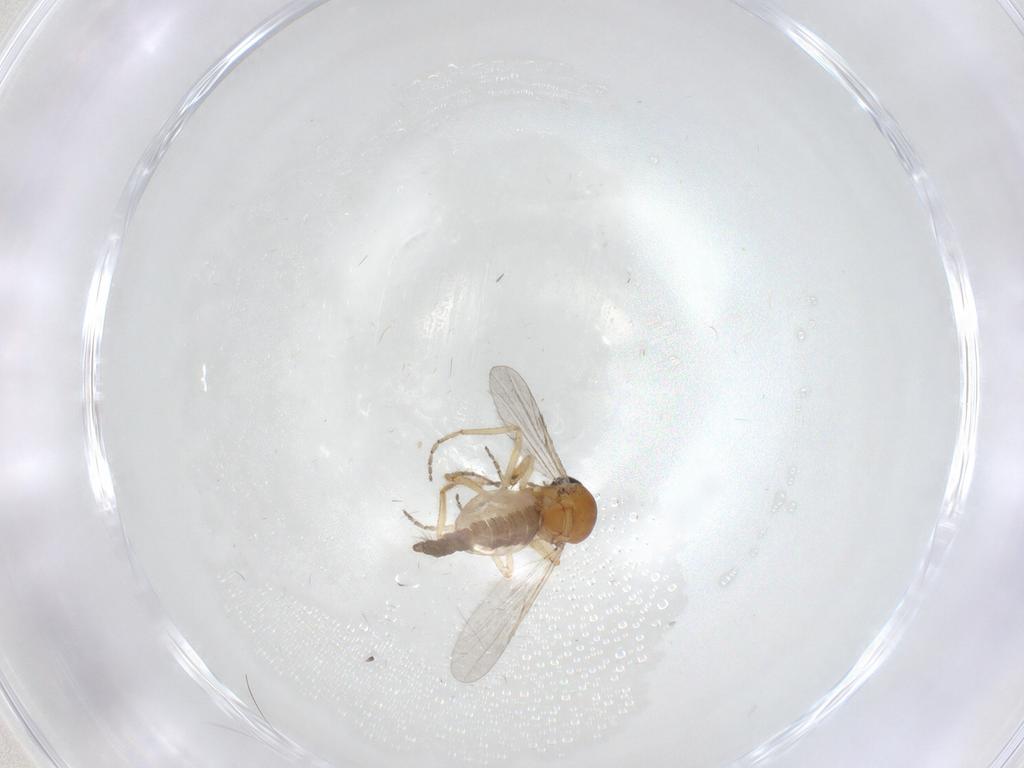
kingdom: Animalia
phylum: Arthropoda
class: Insecta
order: Diptera
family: Ceratopogonidae
